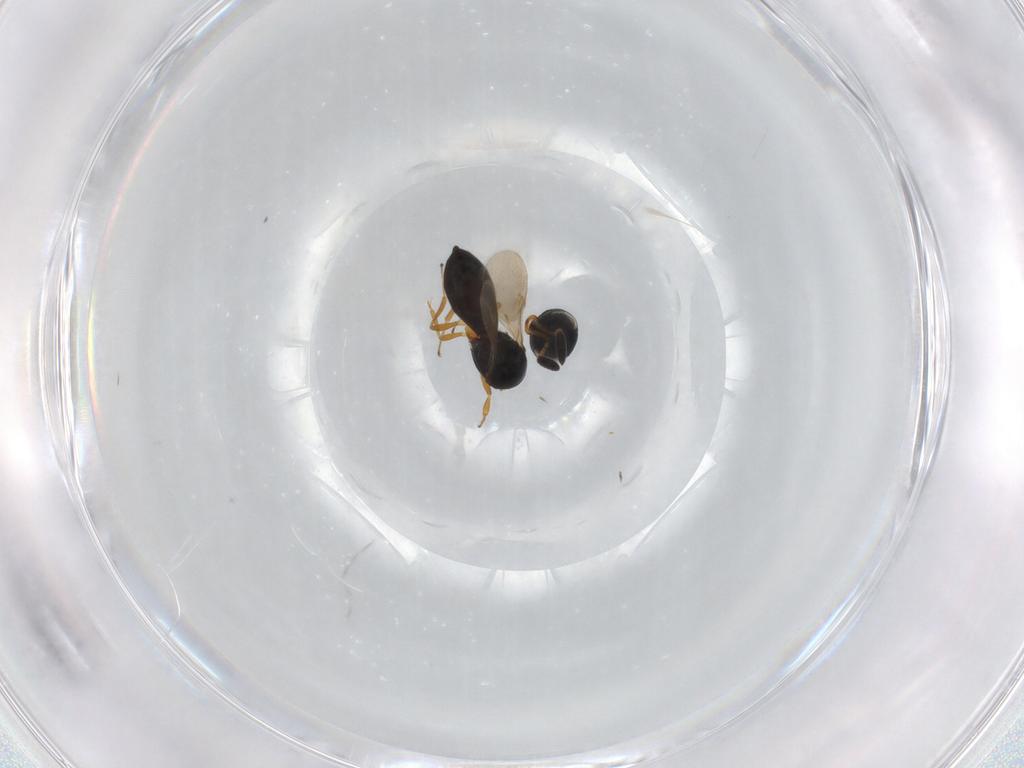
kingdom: Animalia
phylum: Arthropoda
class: Insecta
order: Hymenoptera
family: Mymaridae
